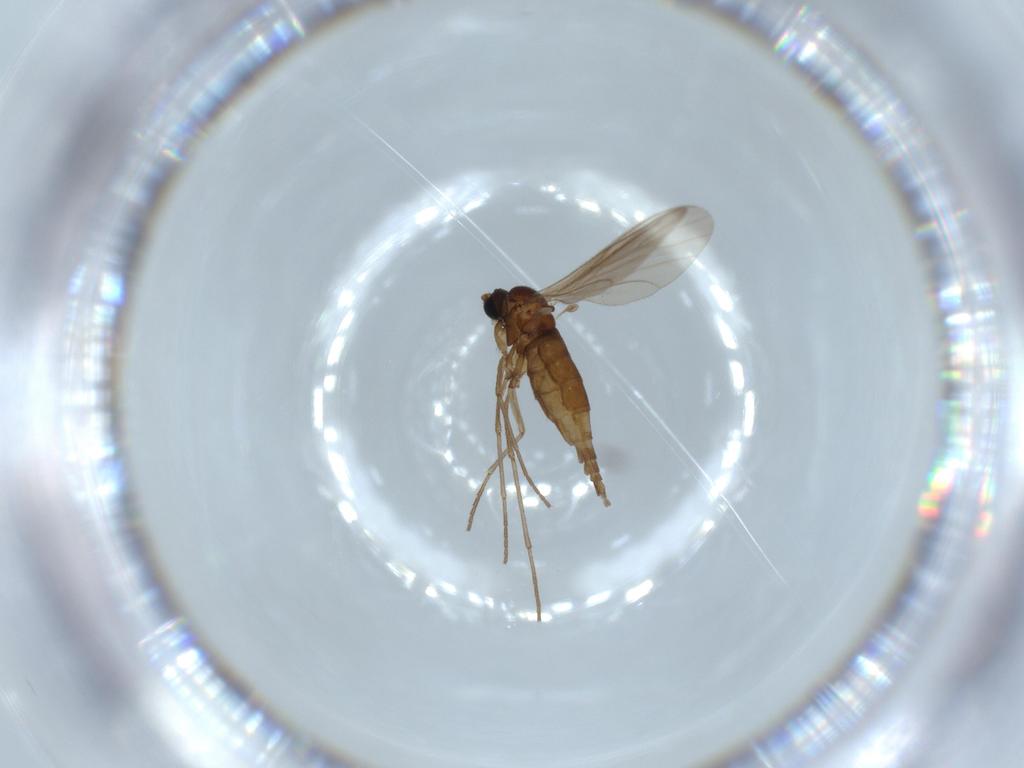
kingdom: Animalia
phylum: Arthropoda
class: Insecta
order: Diptera
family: Sciaridae
